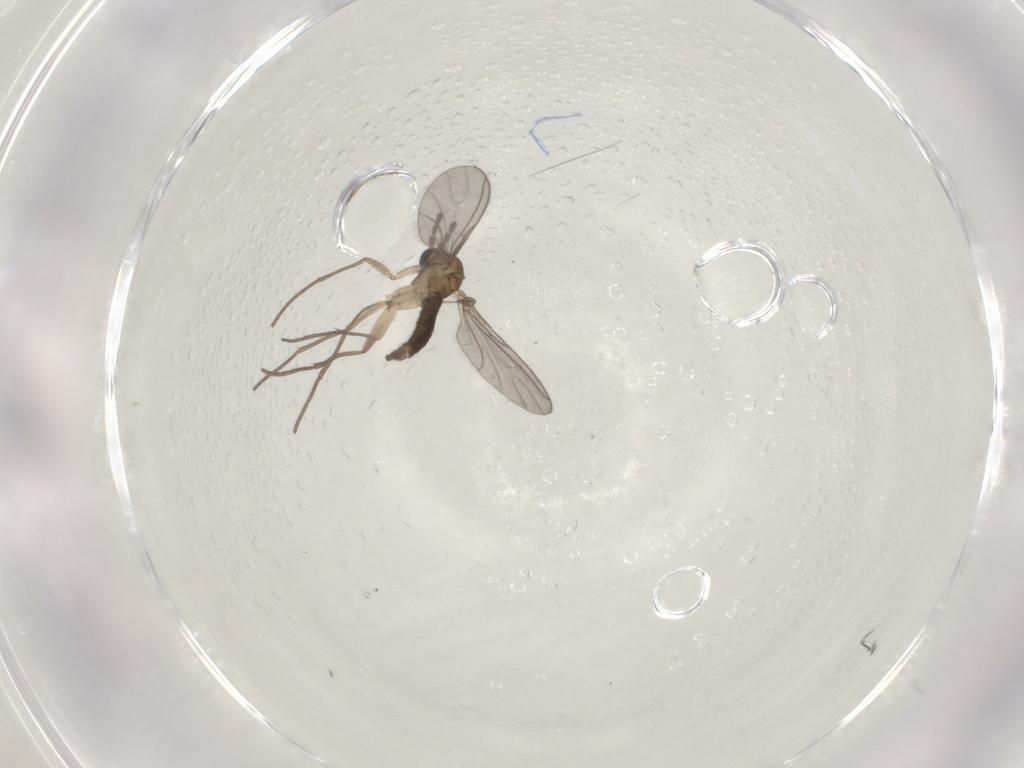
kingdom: Animalia
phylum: Arthropoda
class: Insecta
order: Diptera
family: Sciaridae
